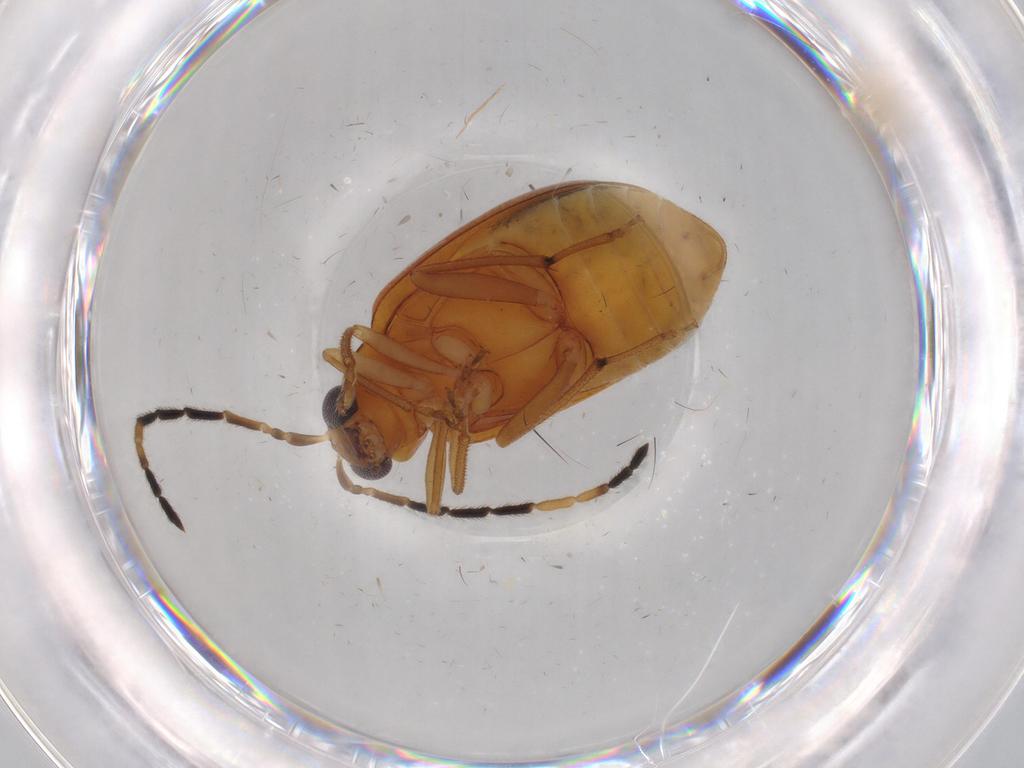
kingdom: Animalia
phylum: Arthropoda
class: Insecta
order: Coleoptera
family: Chrysomelidae
